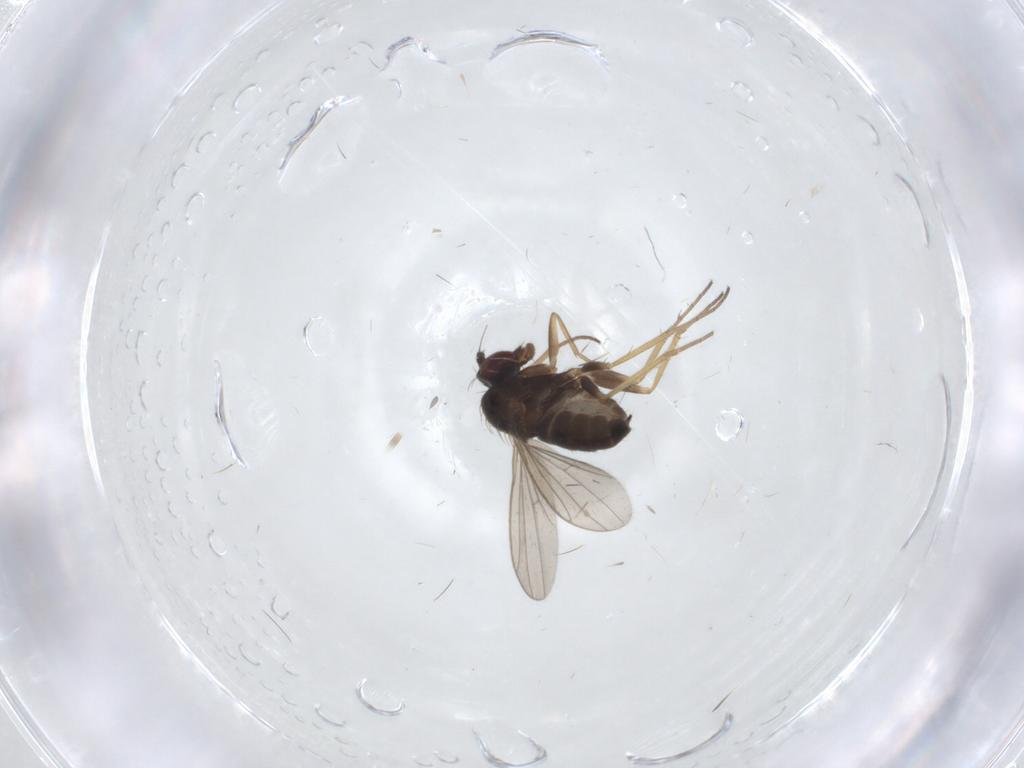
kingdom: Animalia
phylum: Arthropoda
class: Insecta
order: Diptera
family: Dolichopodidae
